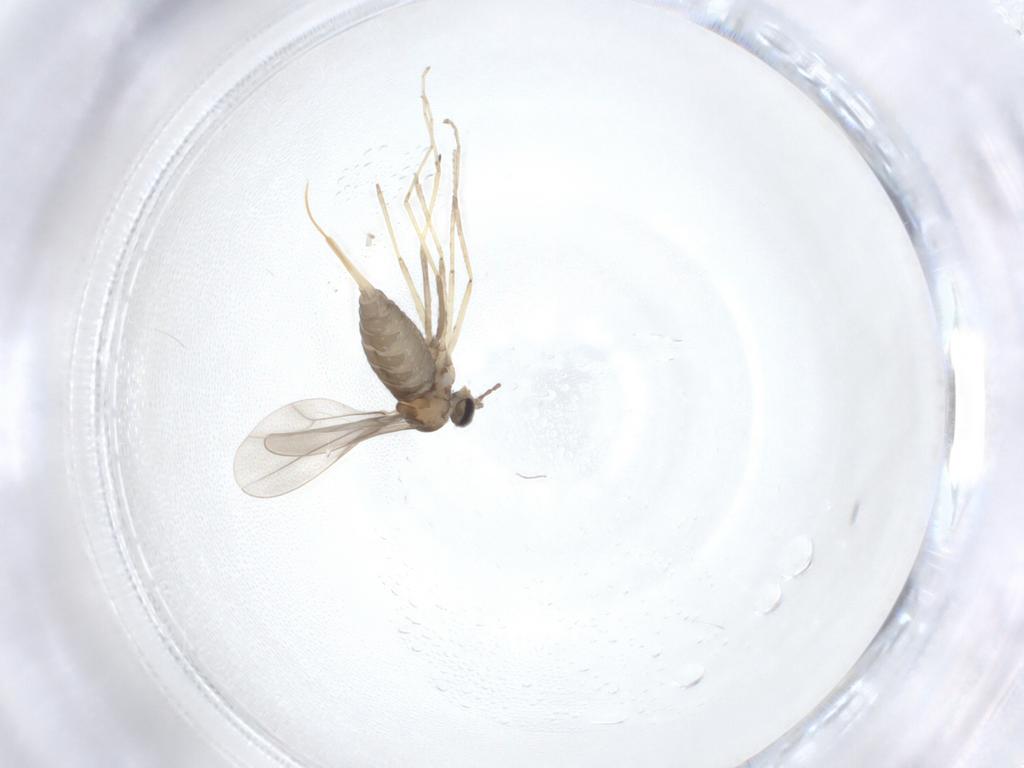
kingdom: Animalia
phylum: Arthropoda
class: Insecta
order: Diptera
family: Cecidomyiidae
